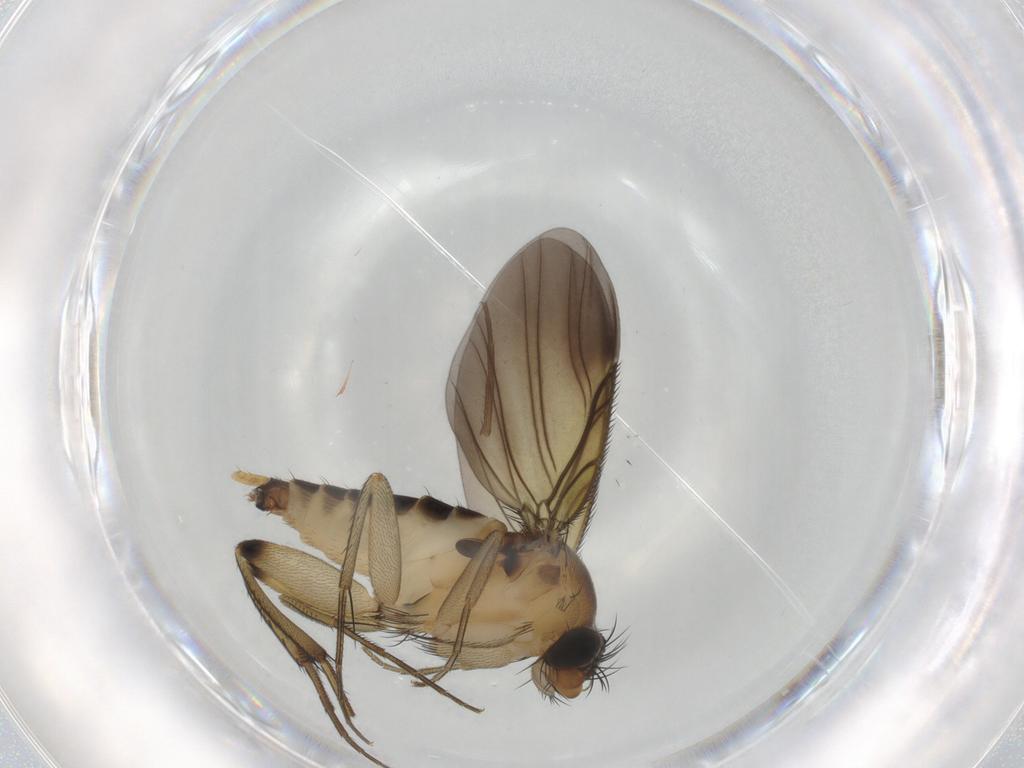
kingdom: Animalia
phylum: Arthropoda
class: Insecta
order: Diptera
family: Phoridae
